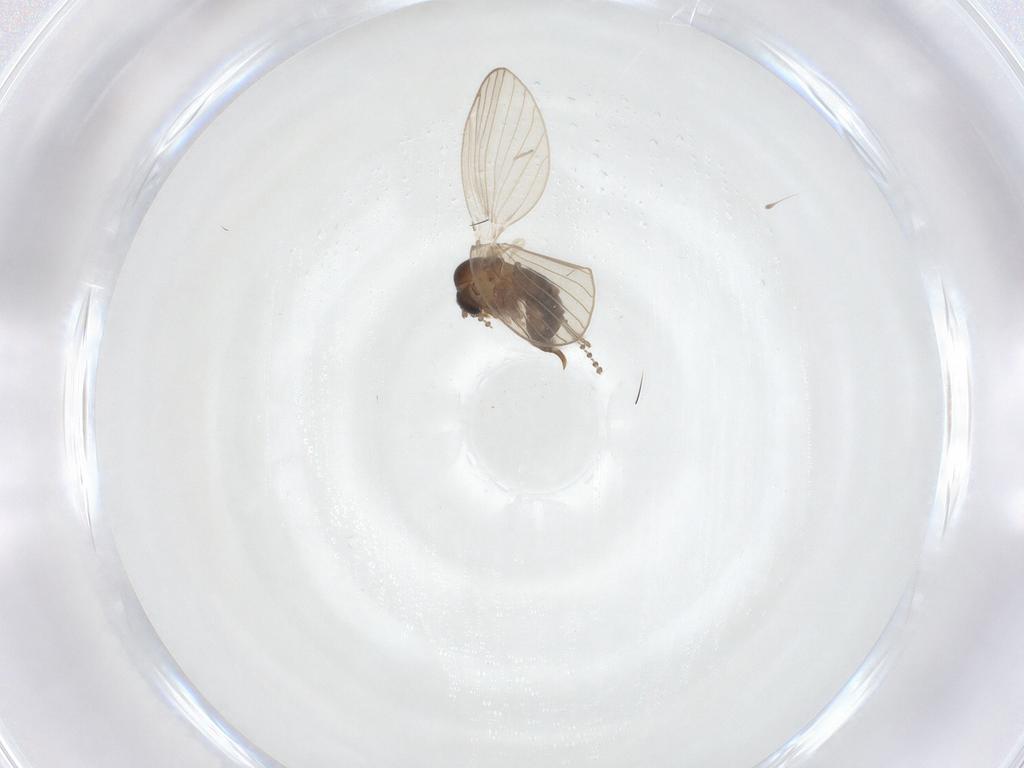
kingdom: Animalia
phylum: Arthropoda
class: Insecta
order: Diptera
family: Psychodidae
